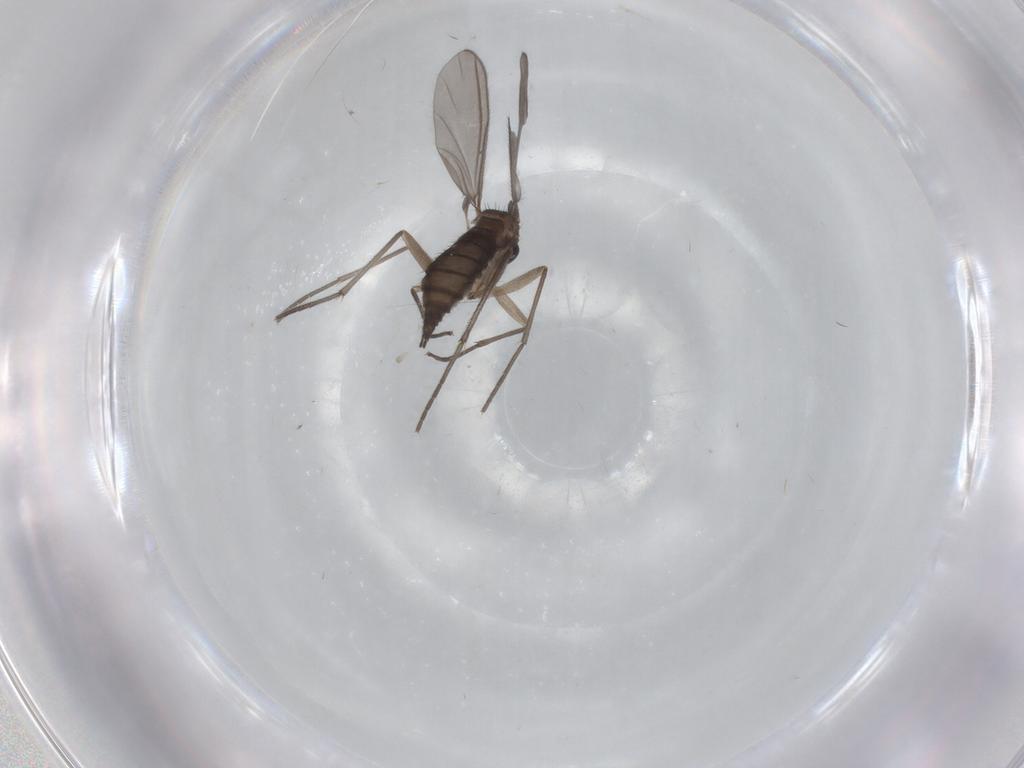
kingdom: Animalia
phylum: Arthropoda
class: Insecta
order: Diptera
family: Sciaridae
